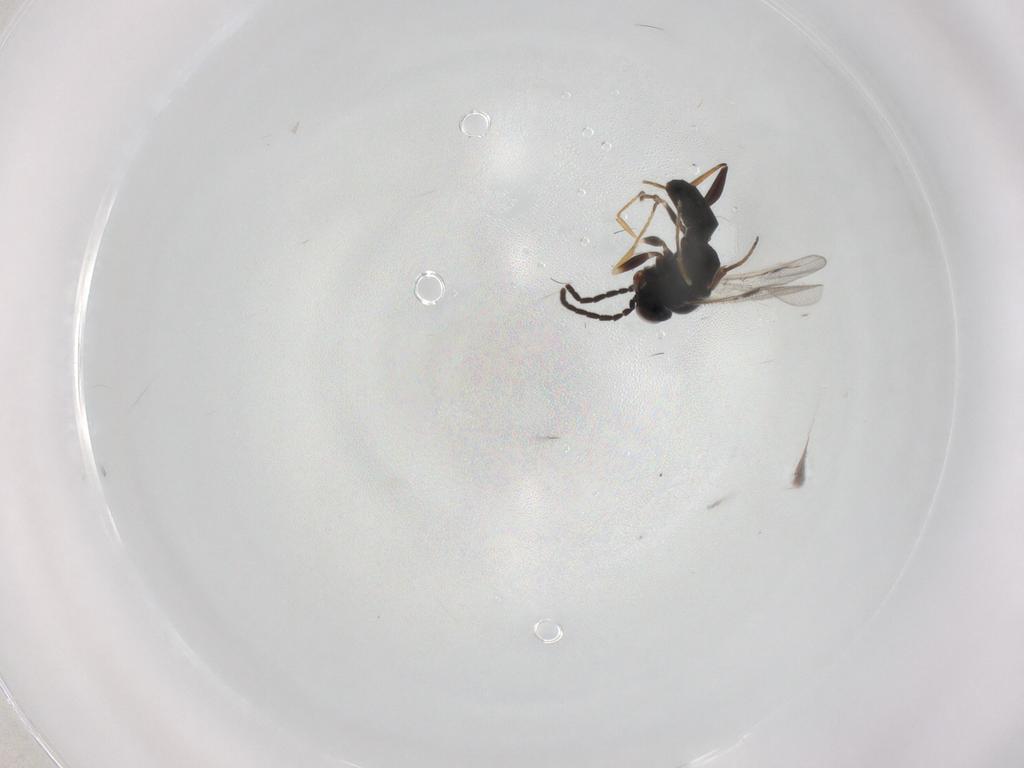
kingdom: Animalia
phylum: Arthropoda
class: Insecta
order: Hymenoptera
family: Dryinidae
